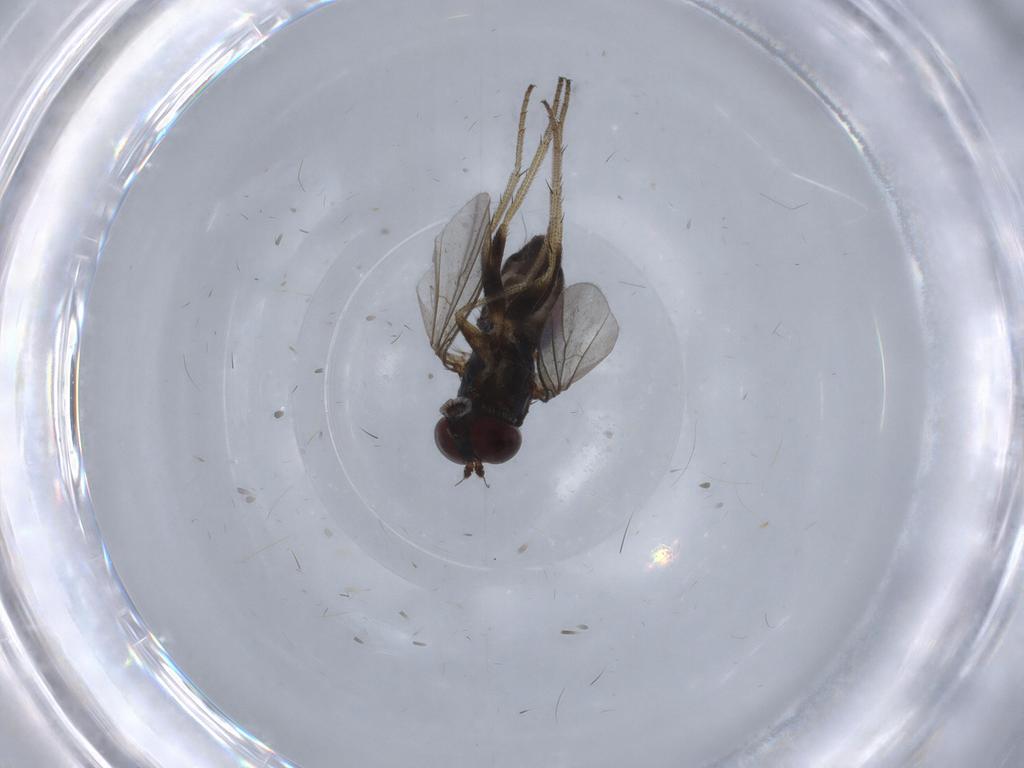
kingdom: Animalia
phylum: Arthropoda
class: Insecta
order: Diptera
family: Dolichopodidae
